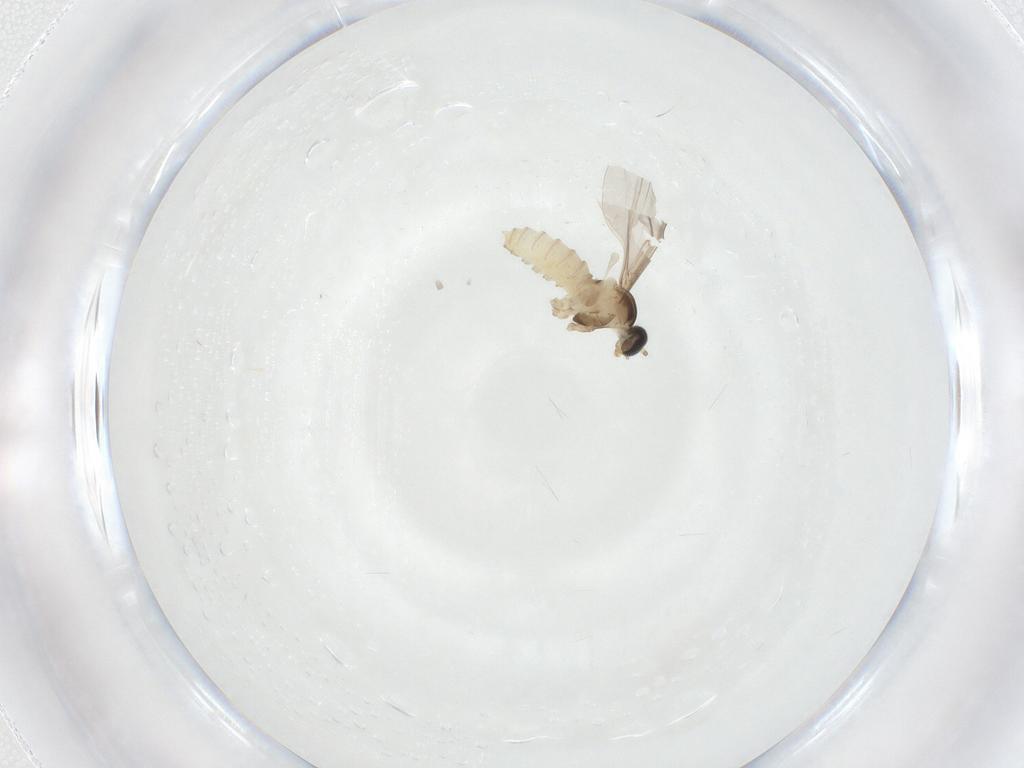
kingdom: Animalia
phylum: Arthropoda
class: Insecta
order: Diptera
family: Cecidomyiidae
